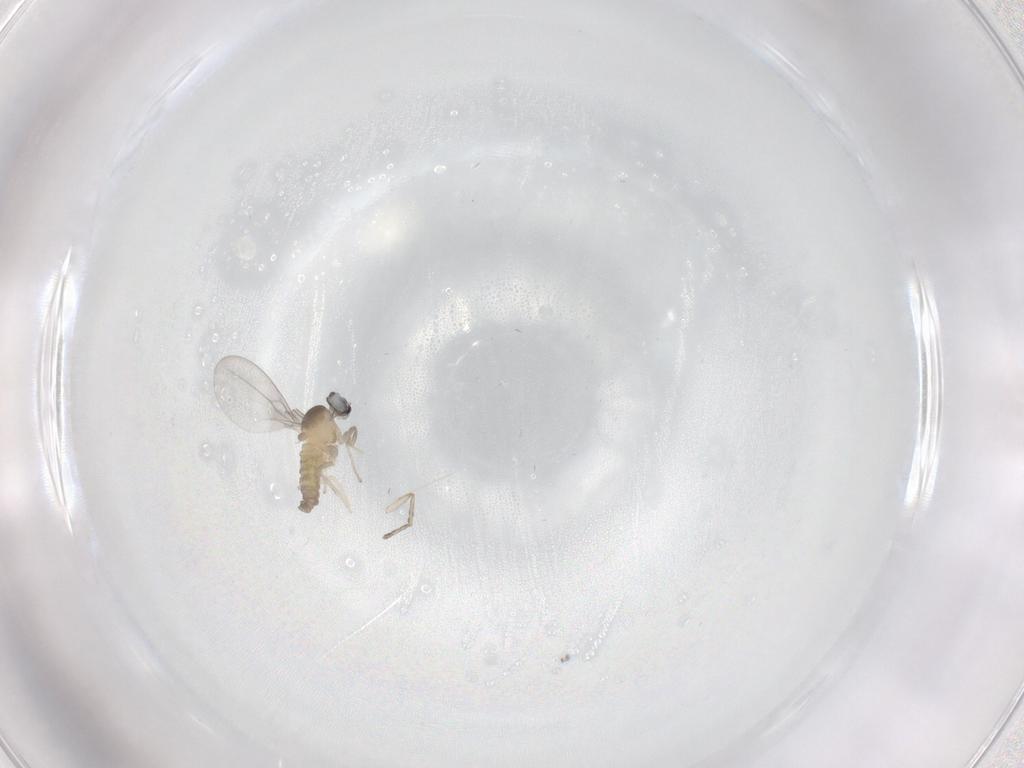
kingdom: Animalia
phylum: Arthropoda
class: Insecta
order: Diptera
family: Cecidomyiidae
